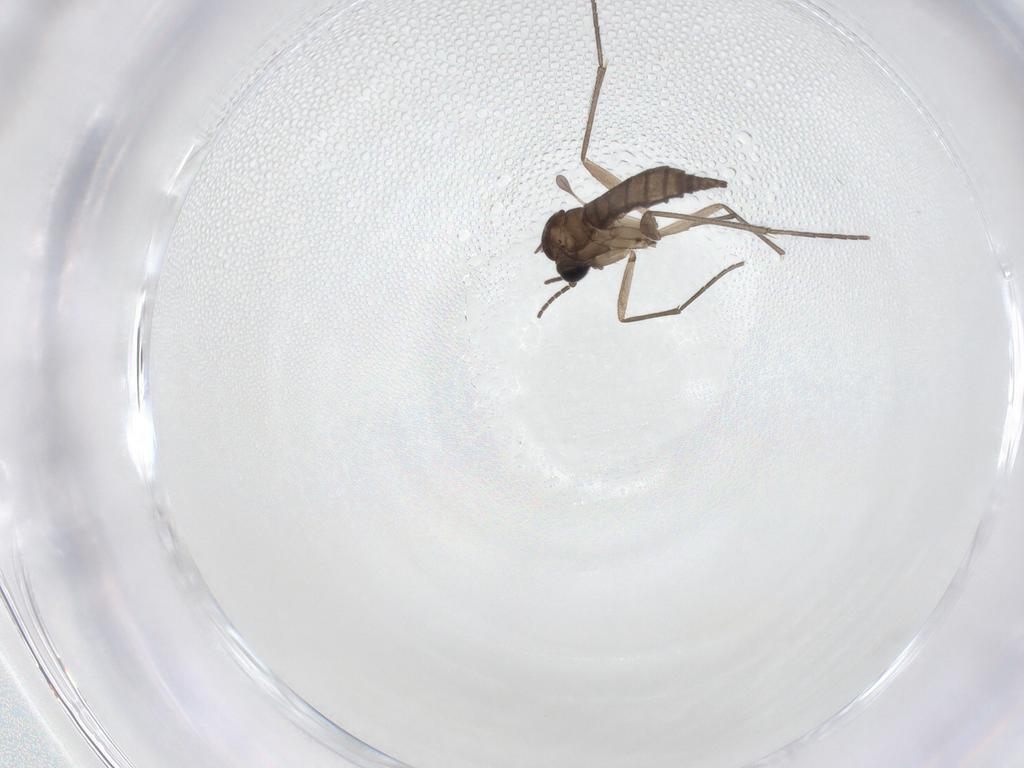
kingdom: Animalia
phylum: Arthropoda
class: Insecta
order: Diptera
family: Sciaridae
